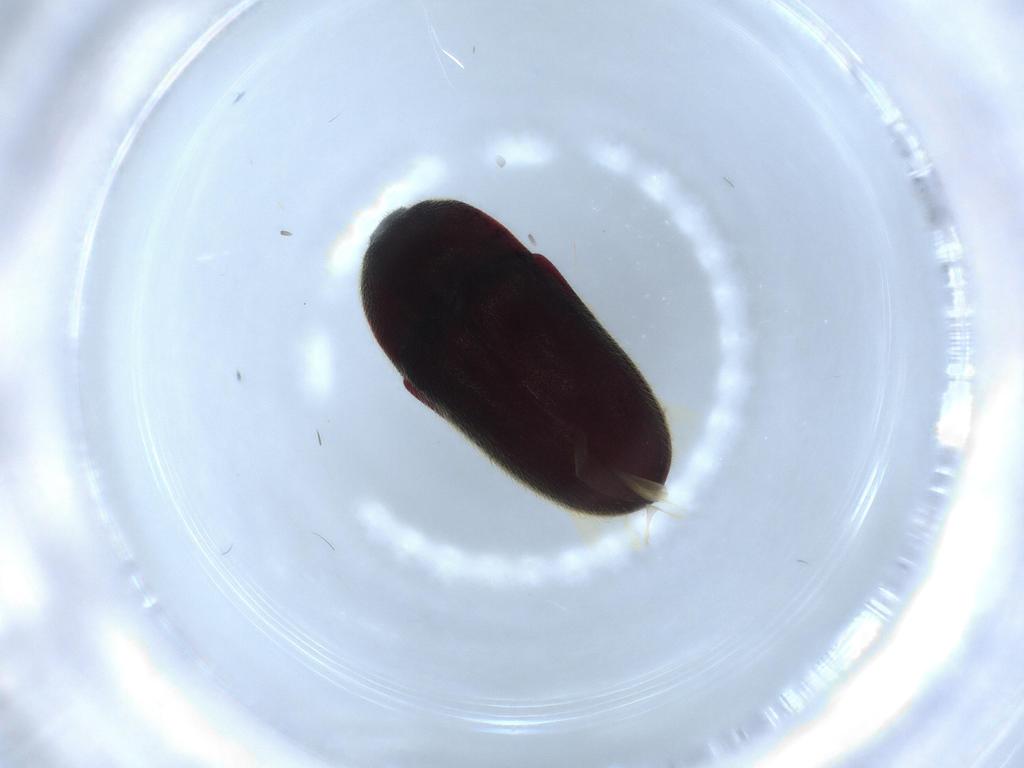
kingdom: Animalia
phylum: Arthropoda
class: Insecta
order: Coleoptera
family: Throscidae
